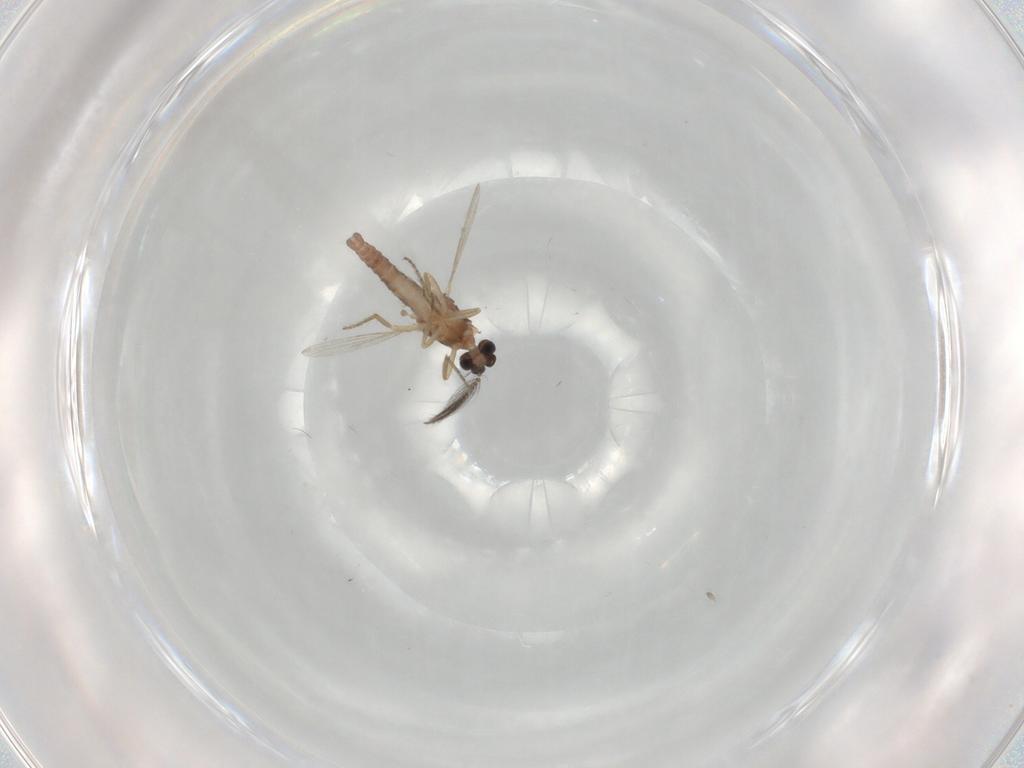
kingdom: Animalia
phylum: Arthropoda
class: Insecta
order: Diptera
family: Ceratopogonidae
